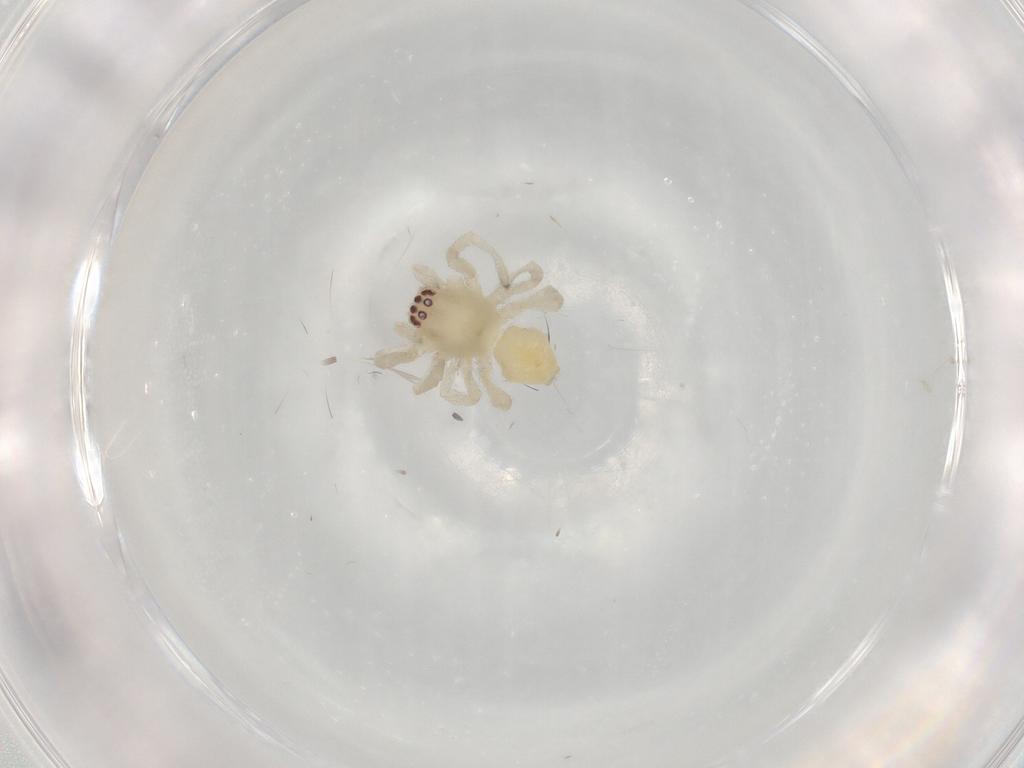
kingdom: Animalia
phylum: Arthropoda
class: Arachnida
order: Araneae
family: Cheiracanthiidae
